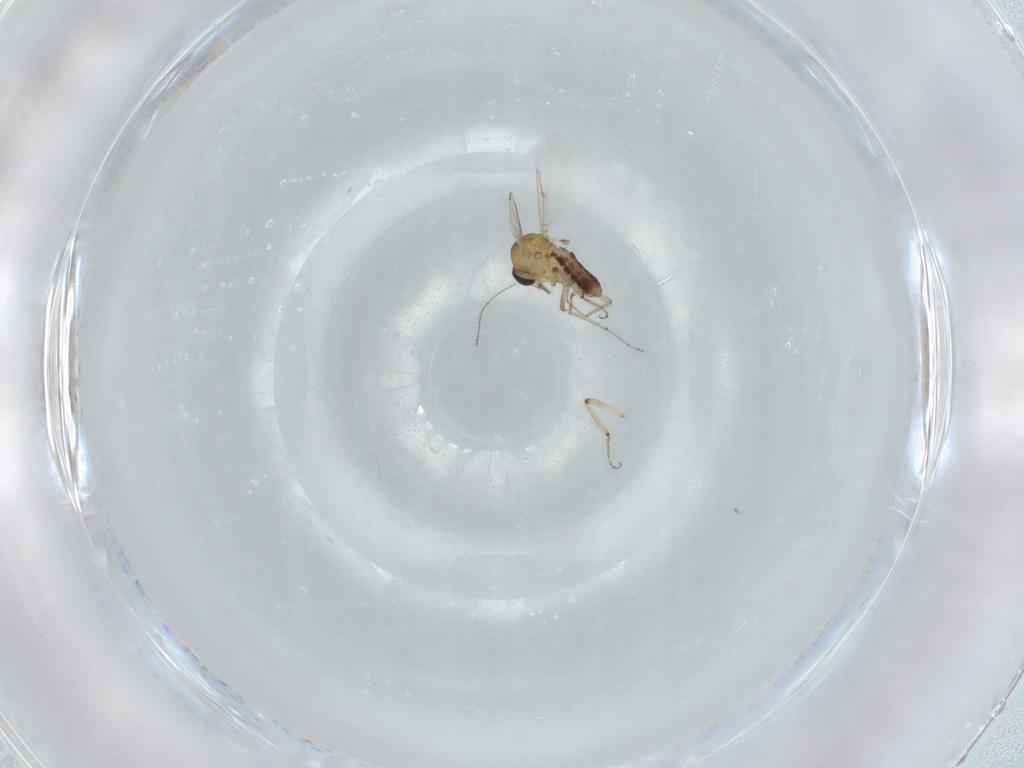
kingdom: Animalia
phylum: Arthropoda
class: Insecta
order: Diptera
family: Ceratopogonidae
